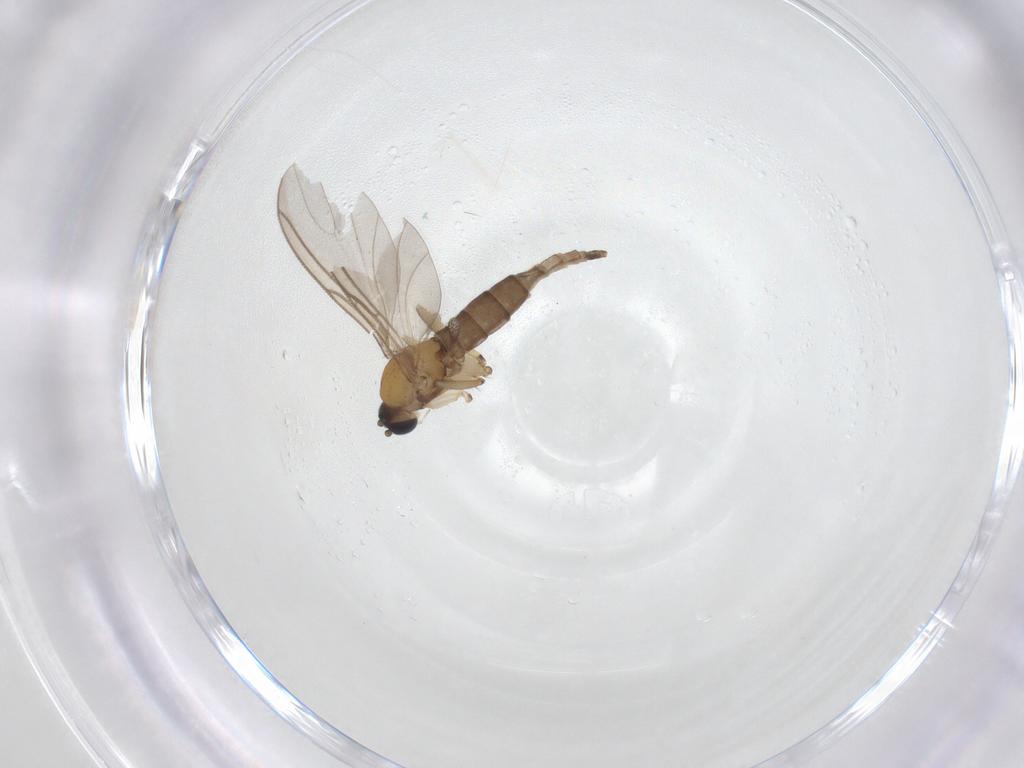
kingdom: Animalia
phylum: Arthropoda
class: Insecta
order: Diptera
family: Sciaridae
